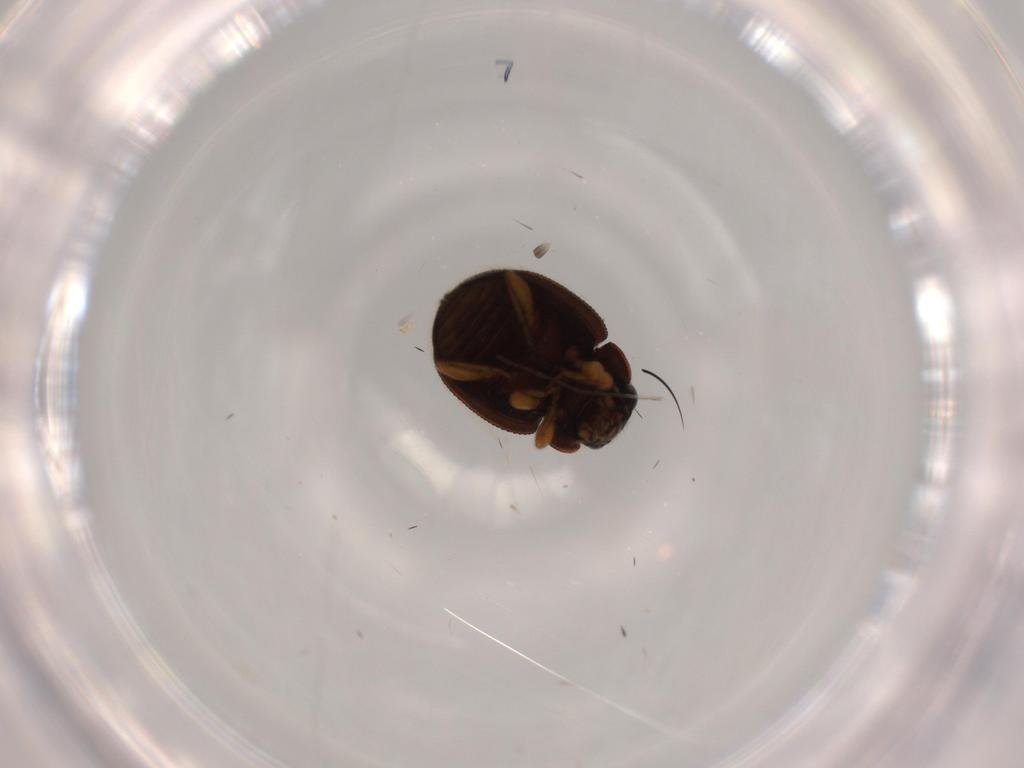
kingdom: Animalia
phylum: Arthropoda
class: Insecta
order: Coleoptera
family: Coccinellidae
